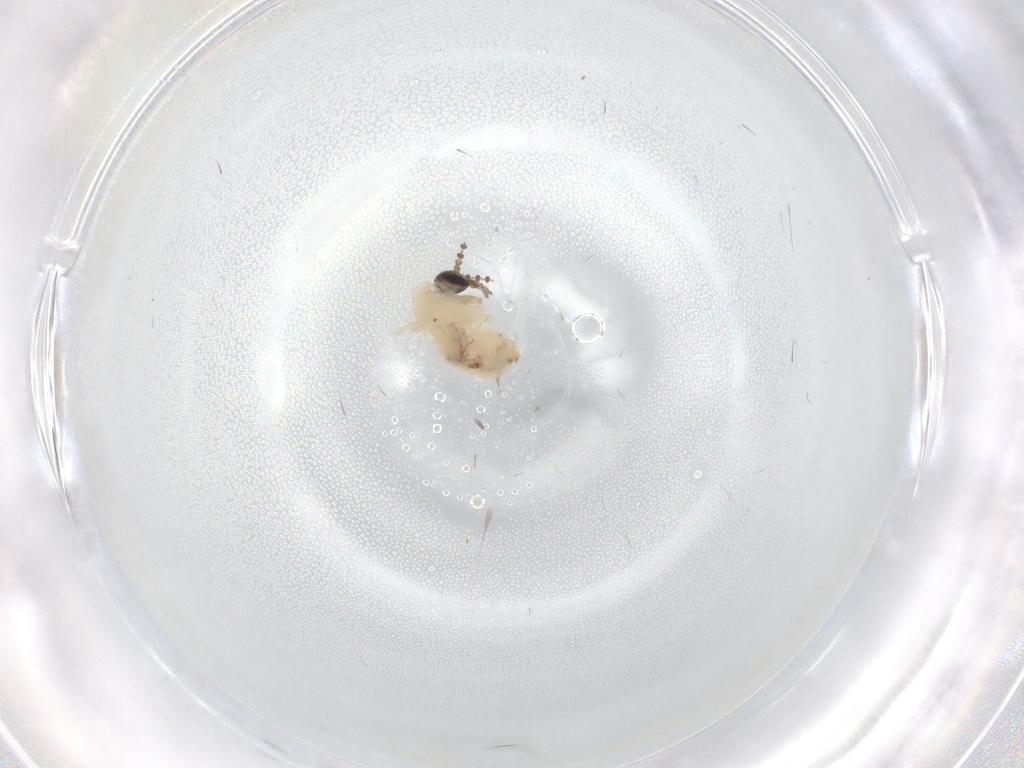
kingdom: Animalia
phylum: Arthropoda
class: Insecta
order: Diptera
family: Psychodidae
